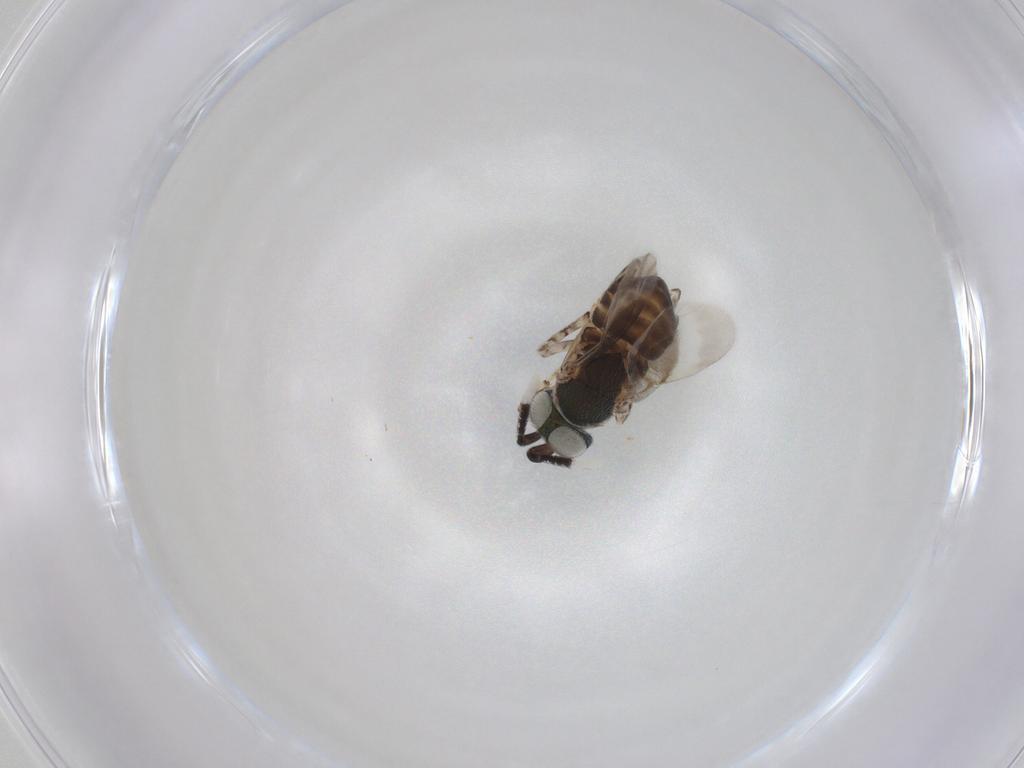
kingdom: Animalia
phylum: Arthropoda
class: Insecta
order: Hymenoptera
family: Encyrtidae
